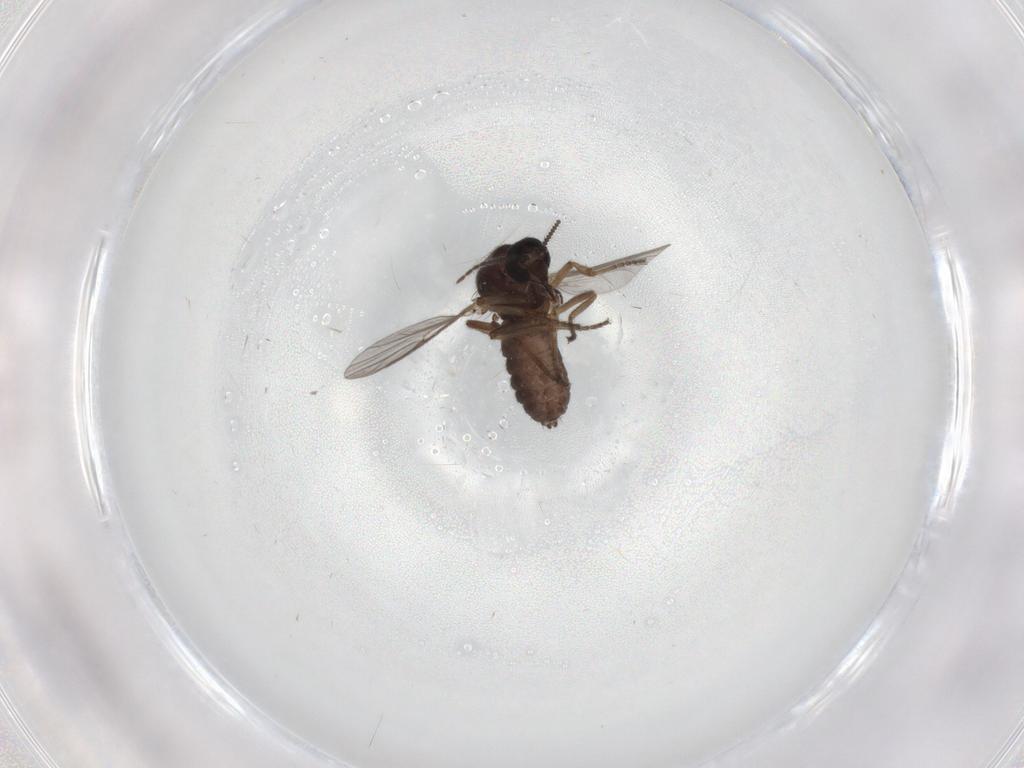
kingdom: Animalia
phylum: Arthropoda
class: Insecta
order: Diptera
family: Ceratopogonidae
